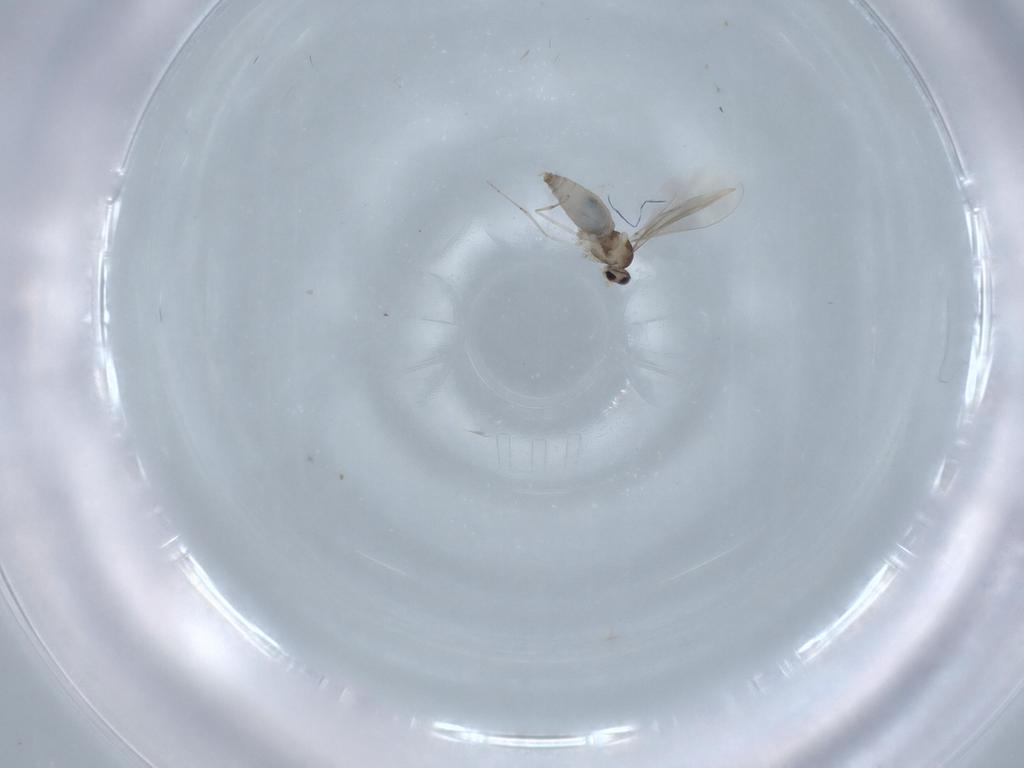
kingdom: Animalia
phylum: Arthropoda
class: Insecta
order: Diptera
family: Cecidomyiidae
